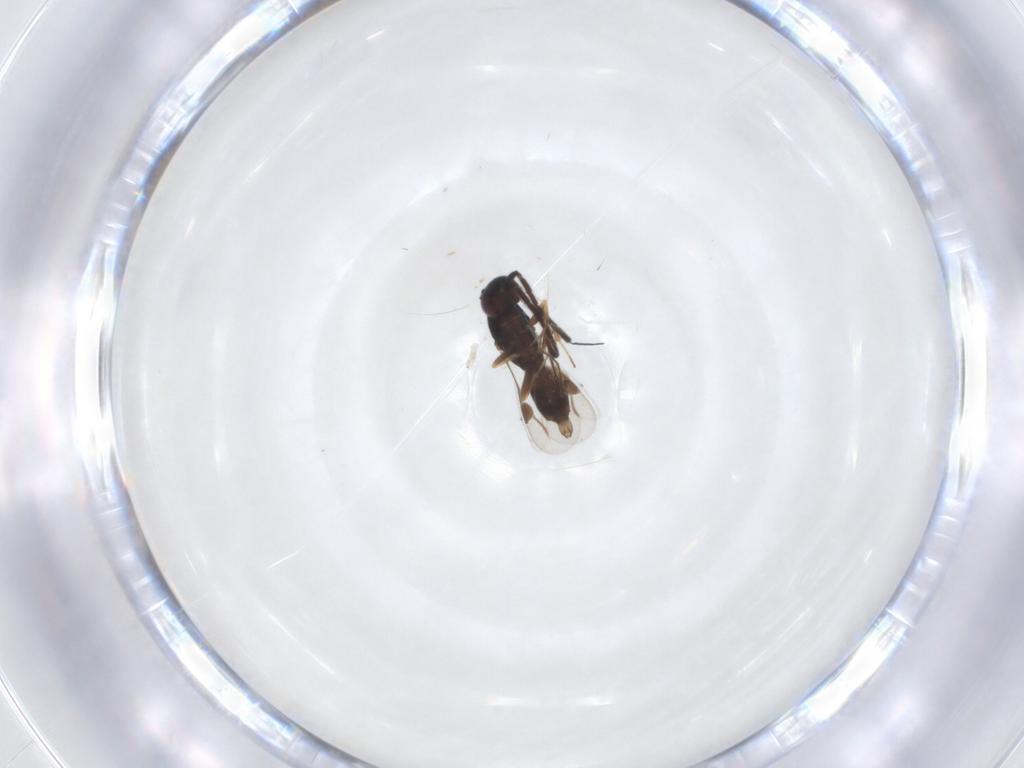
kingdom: Animalia
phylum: Arthropoda
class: Insecta
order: Hymenoptera
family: Megaspilidae
